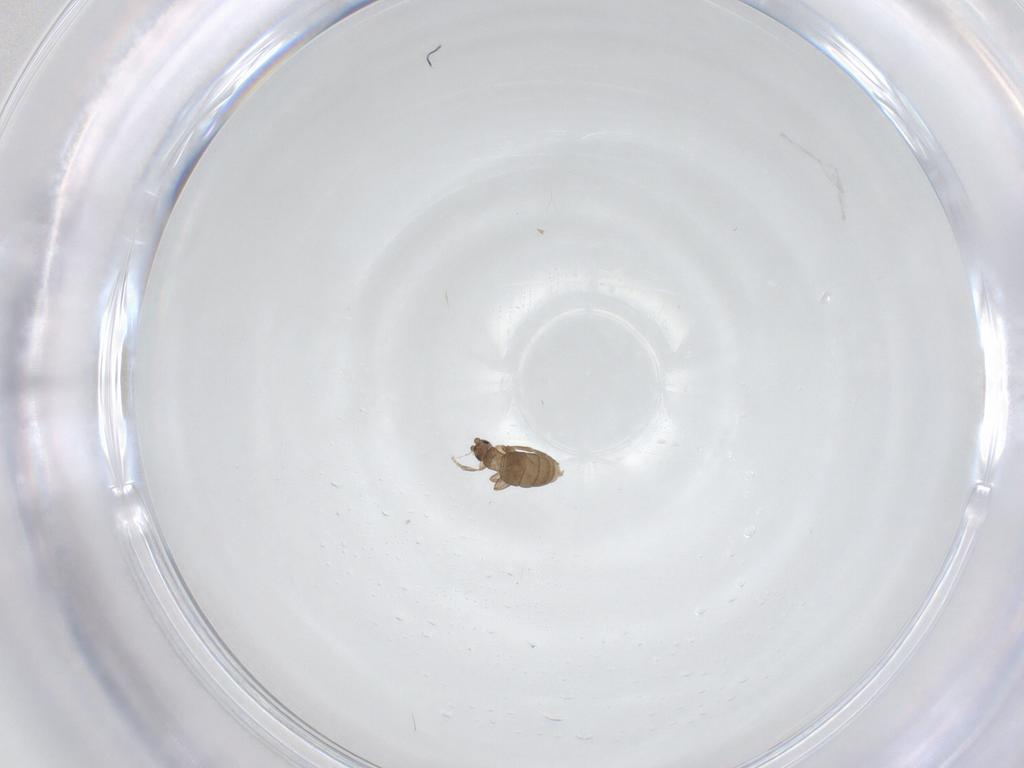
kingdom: Animalia
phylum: Arthropoda
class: Insecta
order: Diptera
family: Phoridae
